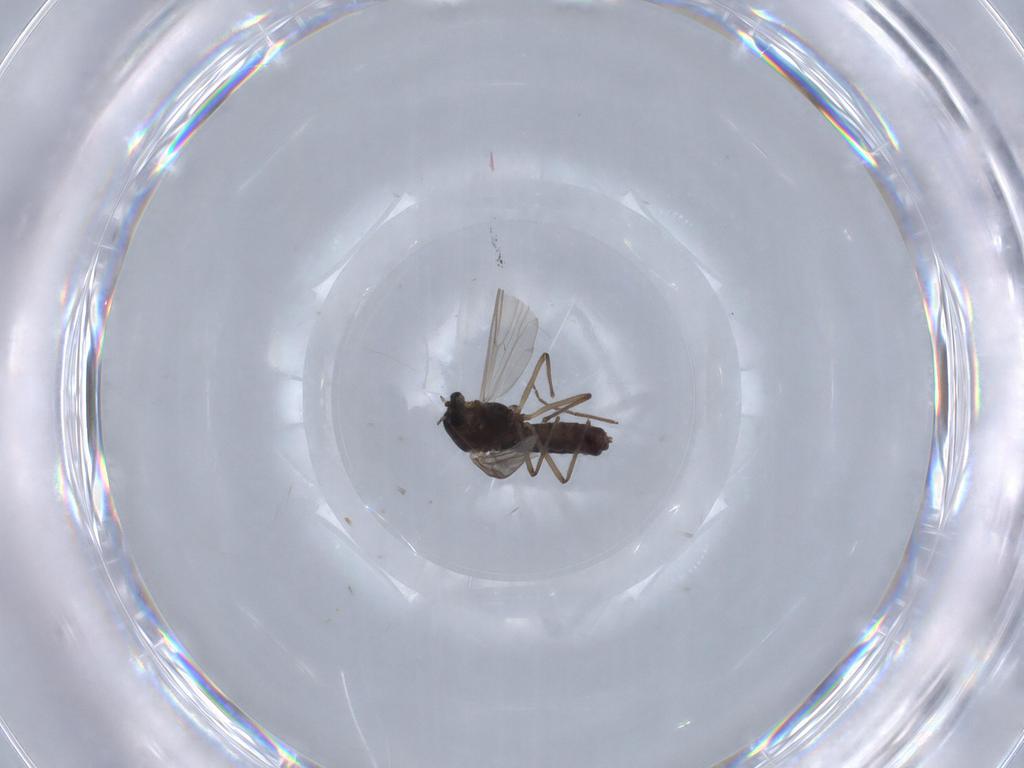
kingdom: Animalia
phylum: Arthropoda
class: Insecta
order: Diptera
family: Chironomidae
